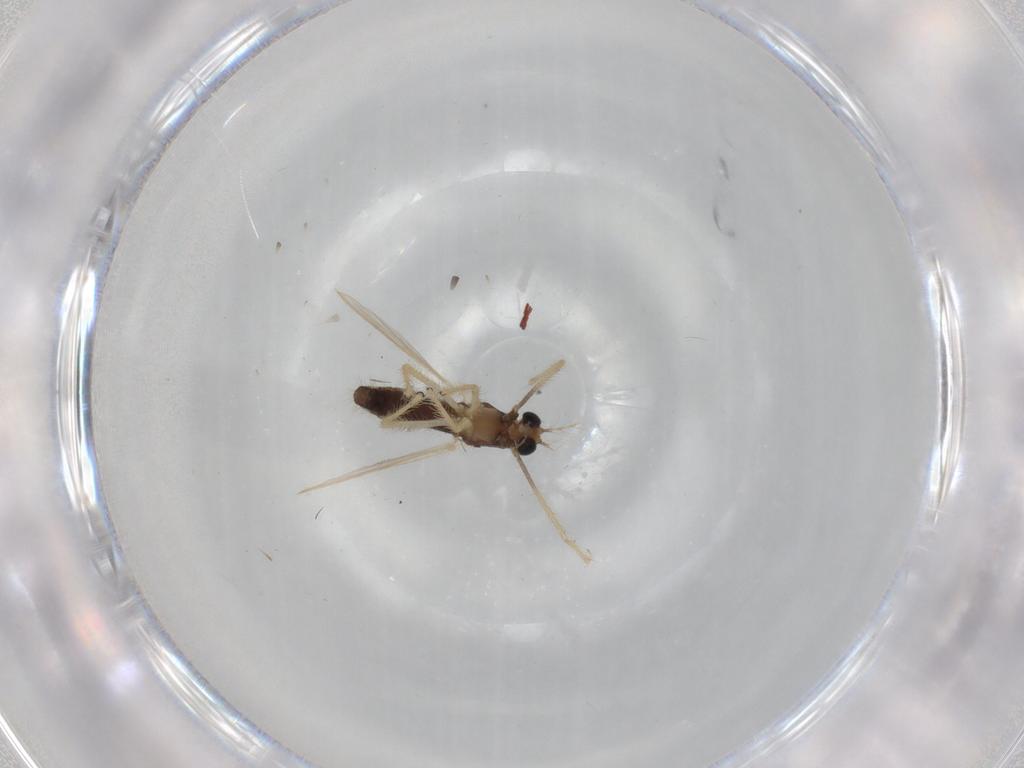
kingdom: Animalia
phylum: Arthropoda
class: Insecta
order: Diptera
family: Chironomidae
